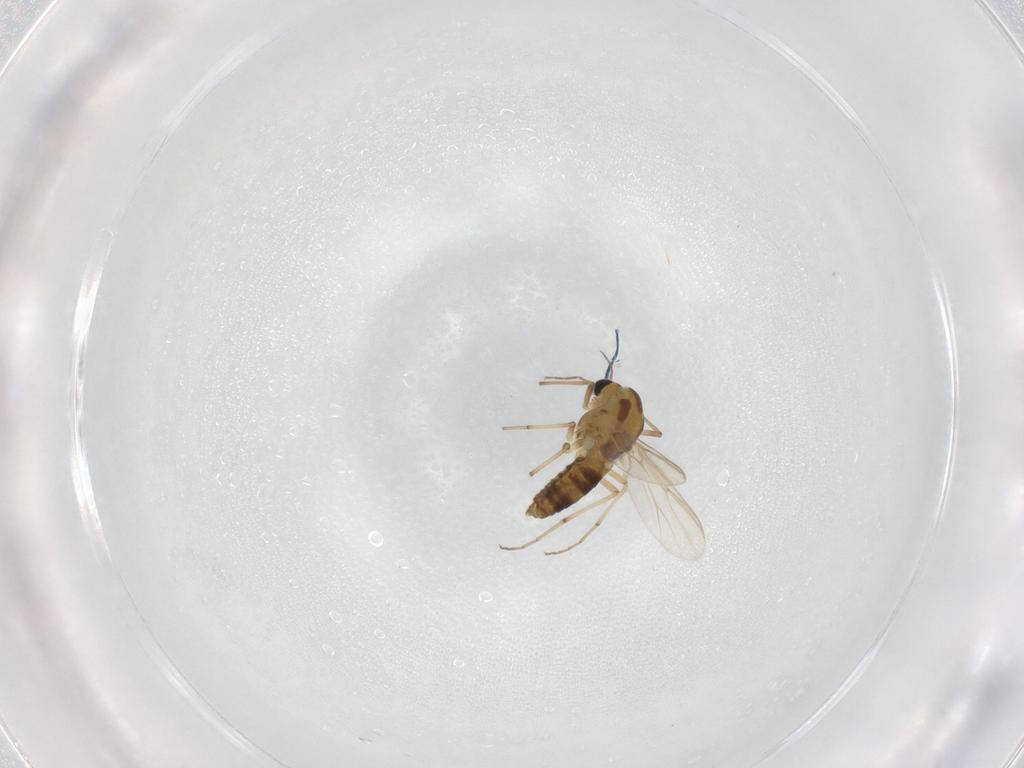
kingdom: Animalia
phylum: Arthropoda
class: Insecta
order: Diptera
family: Chironomidae
